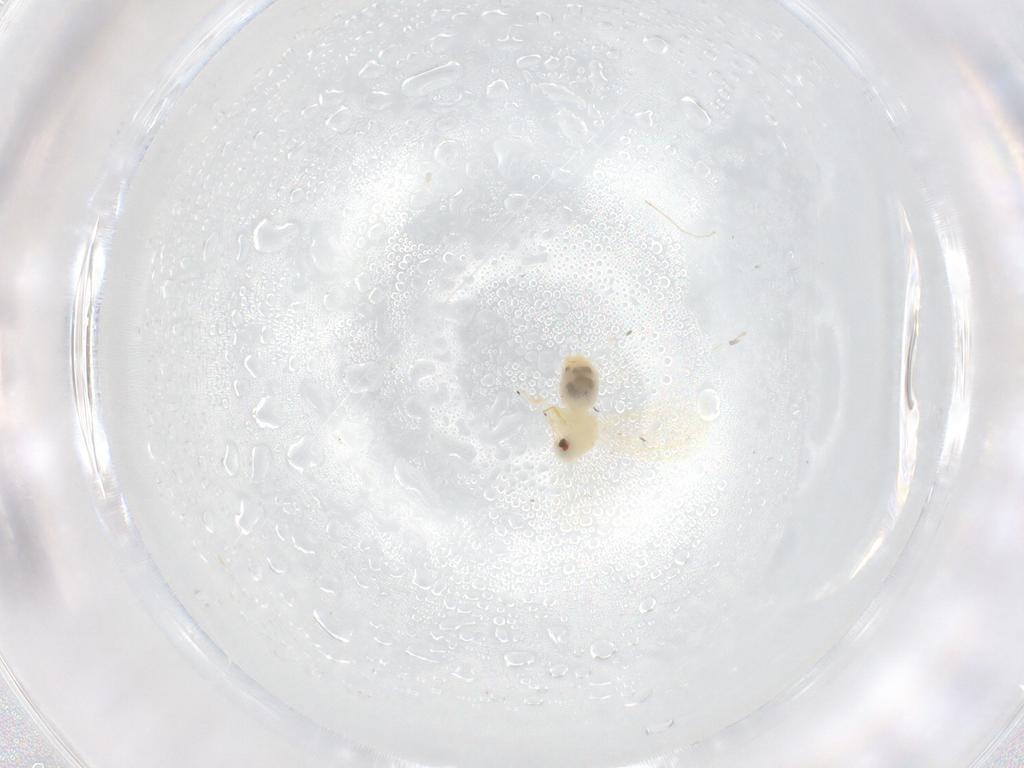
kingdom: Animalia
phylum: Arthropoda
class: Insecta
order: Hemiptera
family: Aleyrodidae
